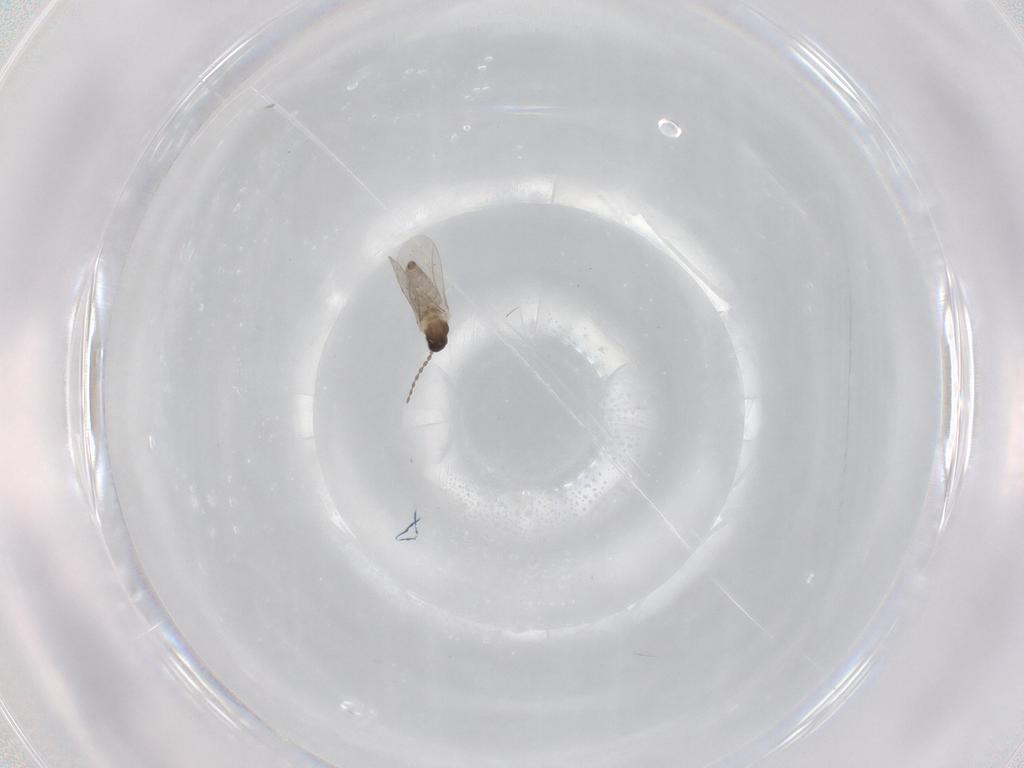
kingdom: Animalia
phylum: Arthropoda
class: Insecta
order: Diptera
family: Cecidomyiidae
